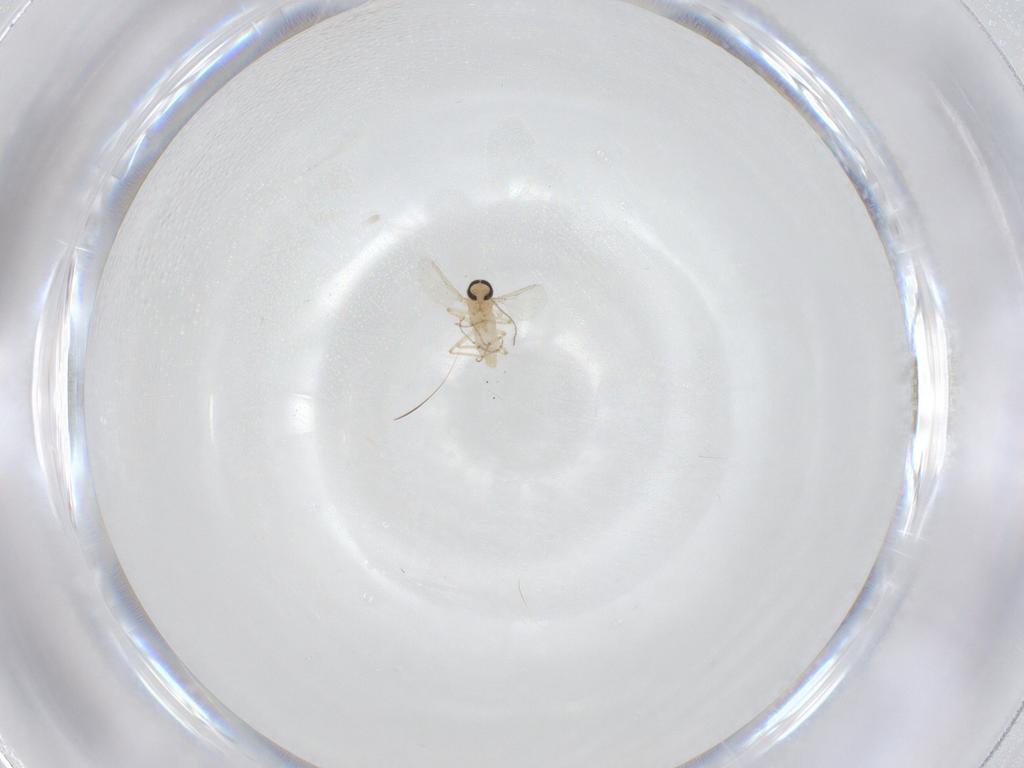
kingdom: Animalia
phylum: Arthropoda
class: Insecta
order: Diptera
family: Ceratopogonidae
